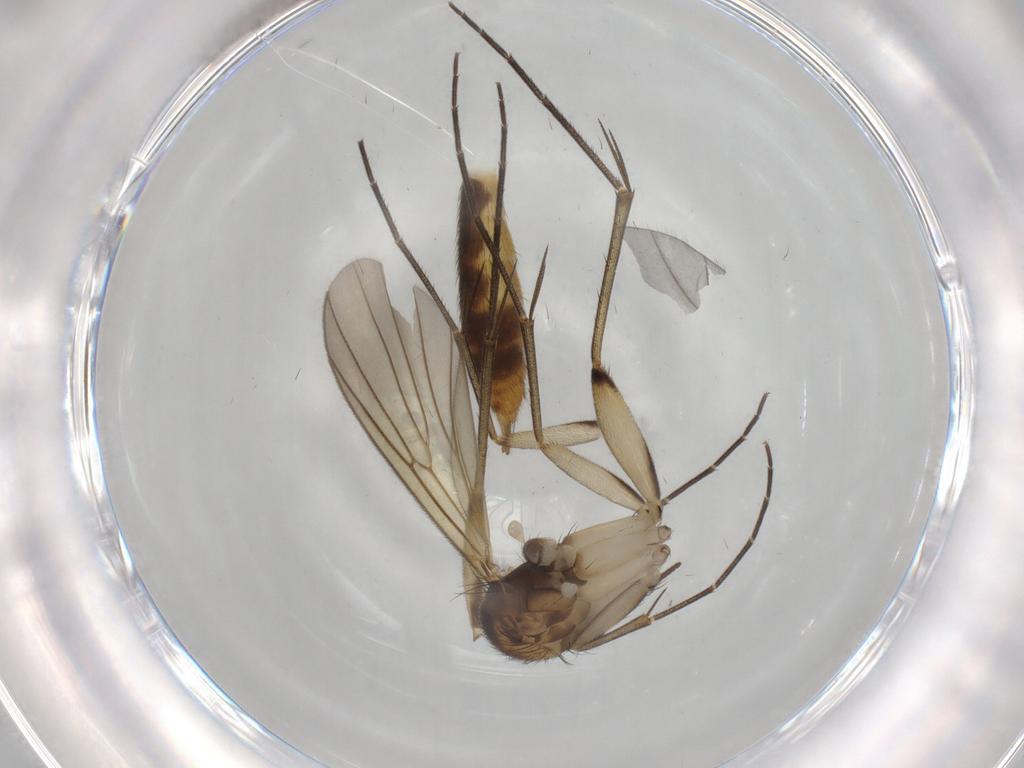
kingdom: Animalia
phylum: Arthropoda
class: Insecta
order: Diptera
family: Mycetophilidae
